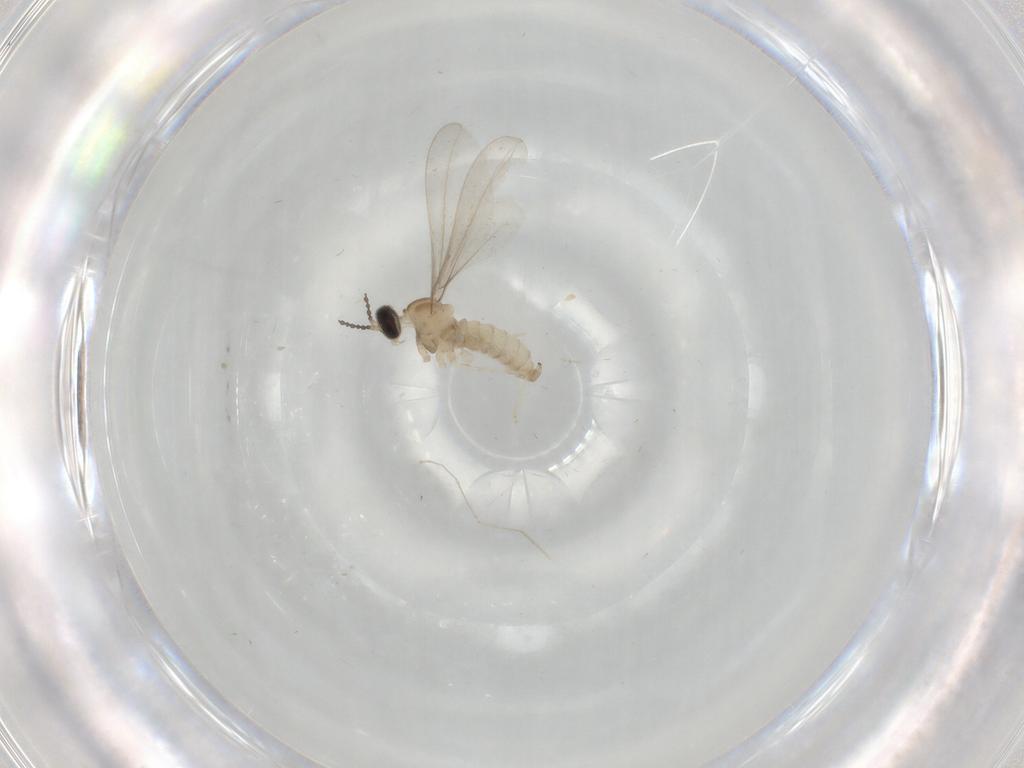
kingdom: Animalia
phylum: Arthropoda
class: Insecta
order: Diptera
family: Cecidomyiidae
